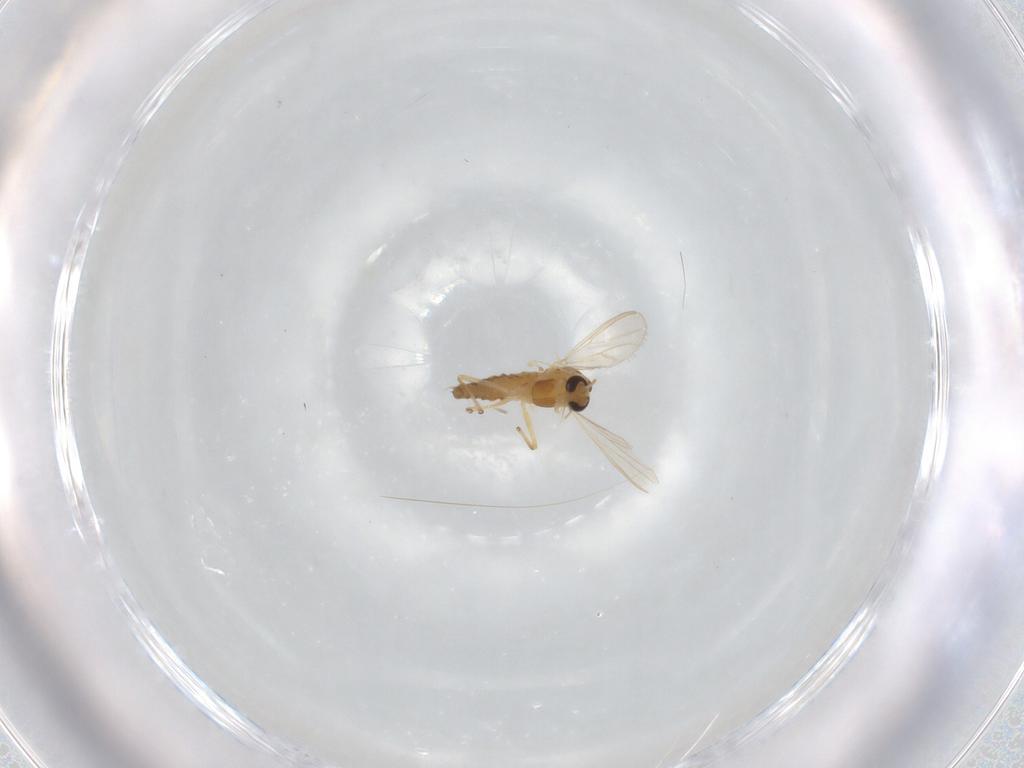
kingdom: Animalia
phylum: Arthropoda
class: Insecta
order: Diptera
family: Chironomidae
